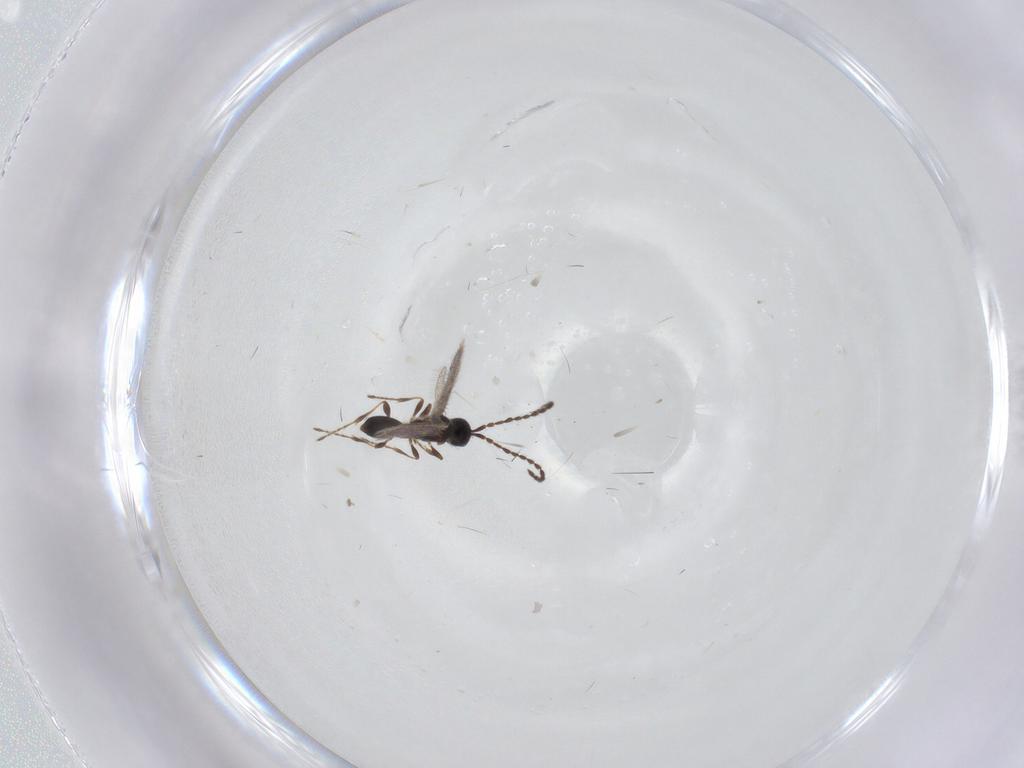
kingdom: Animalia
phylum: Arthropoda
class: Insecta
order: Hymenoptera
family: Diapriidae
